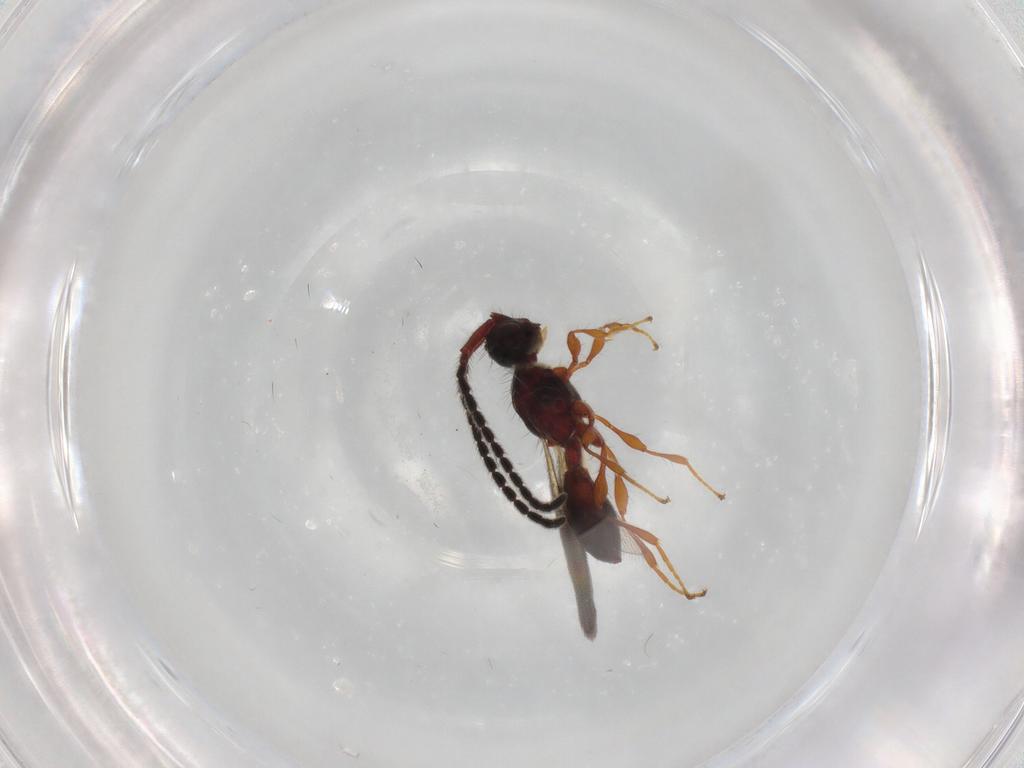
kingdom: Animalia
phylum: Arthropoda
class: Insecta
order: Hymenoptera
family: Diapriidae
